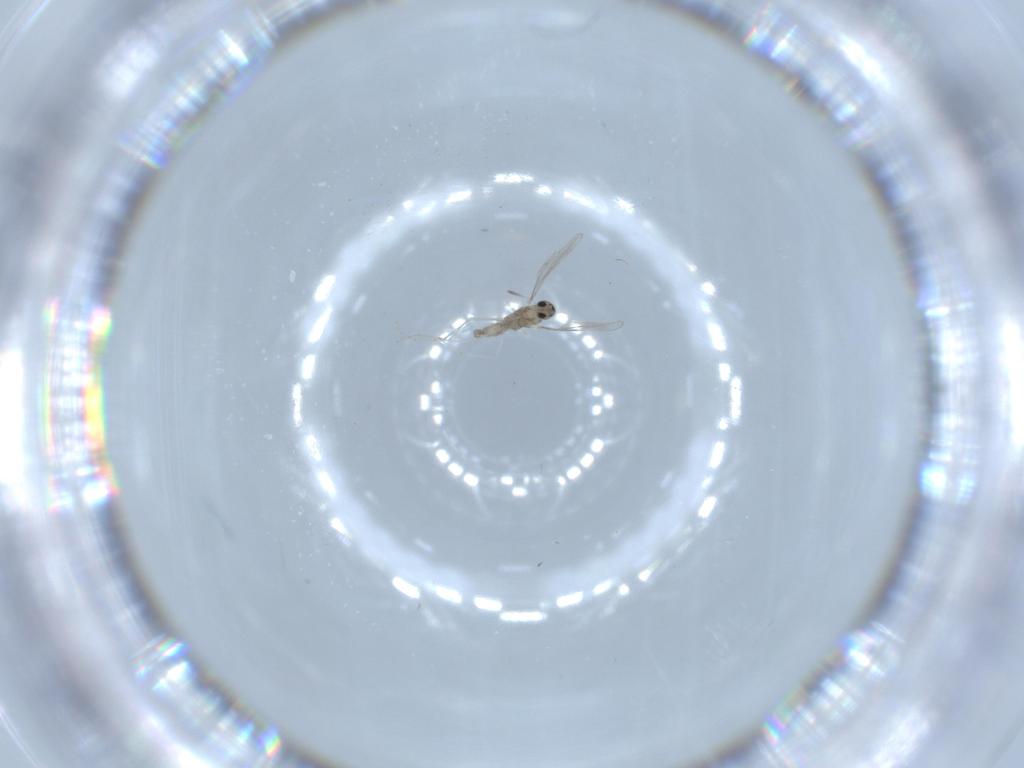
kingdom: Animalia
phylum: Arthropoda
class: Insecta
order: Diptera
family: Cecidomyiidae
